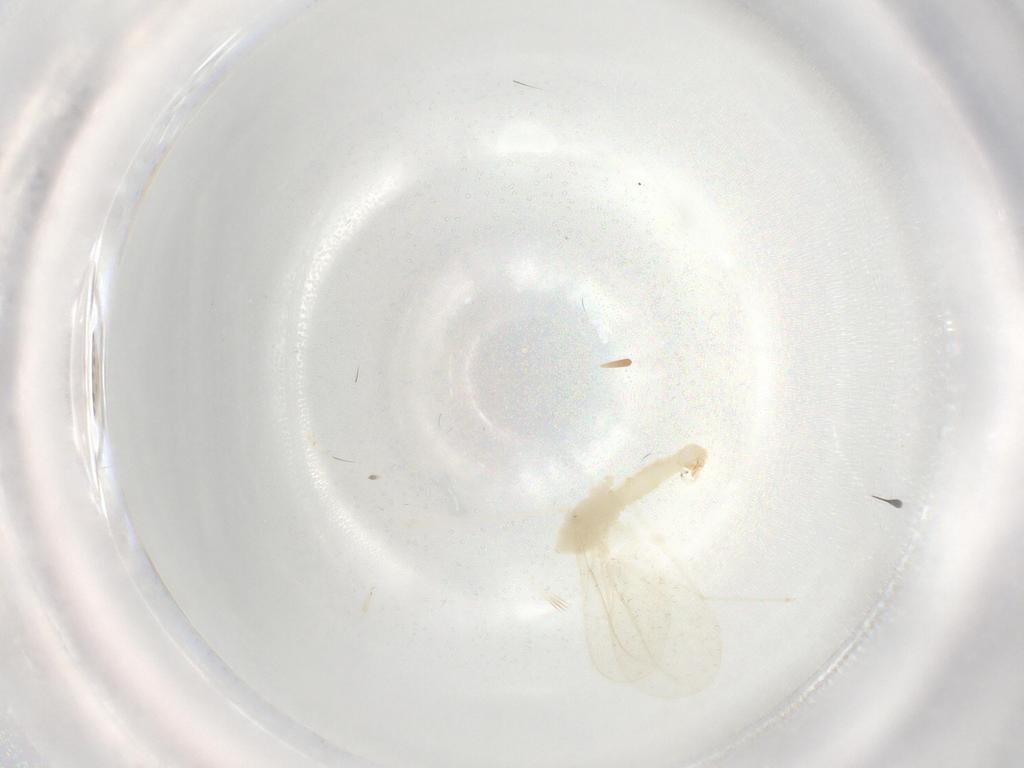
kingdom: Animalia
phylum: Arthropoda
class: Insecta
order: Diptera
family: Cecidomyiidae
